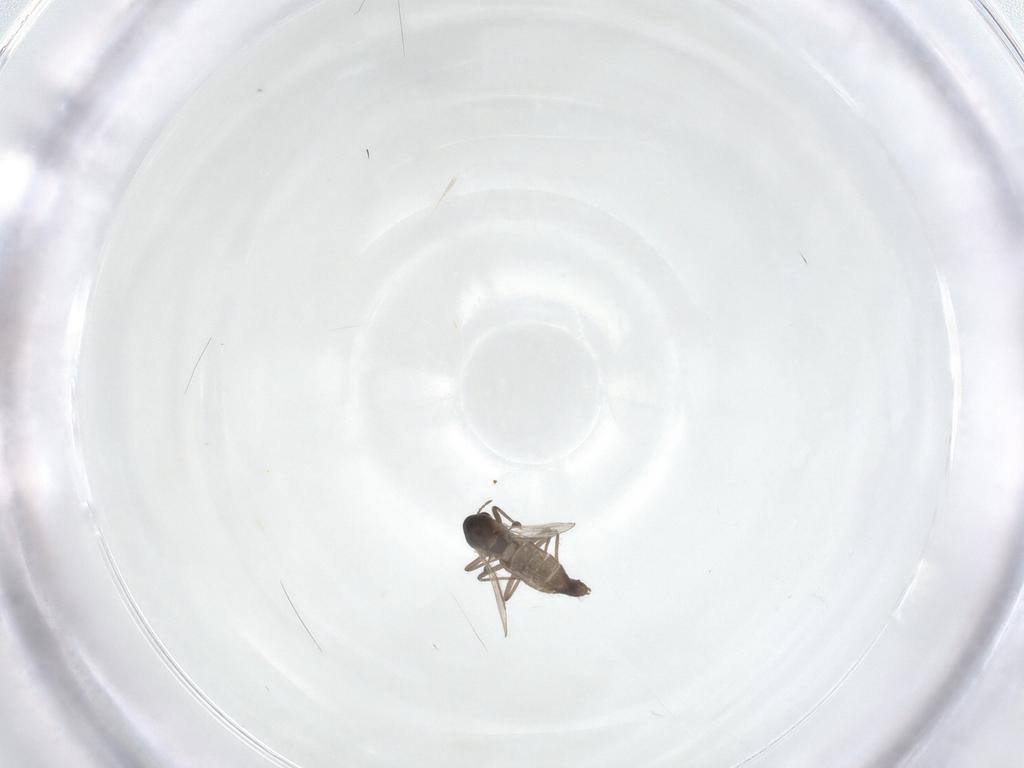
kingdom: Animalia
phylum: Arthropoda
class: Insecta
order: Diptera
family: Chironomidae
